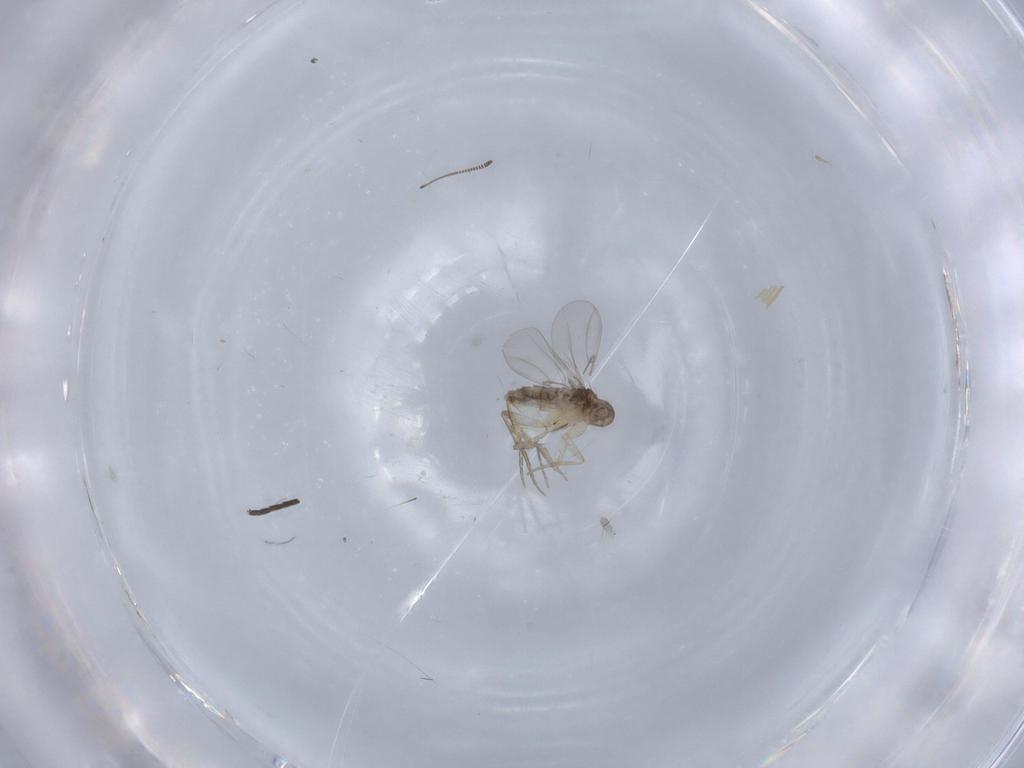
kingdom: Animalia
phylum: Arthropoda
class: Insecta
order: Diptera
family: Chironomidae
